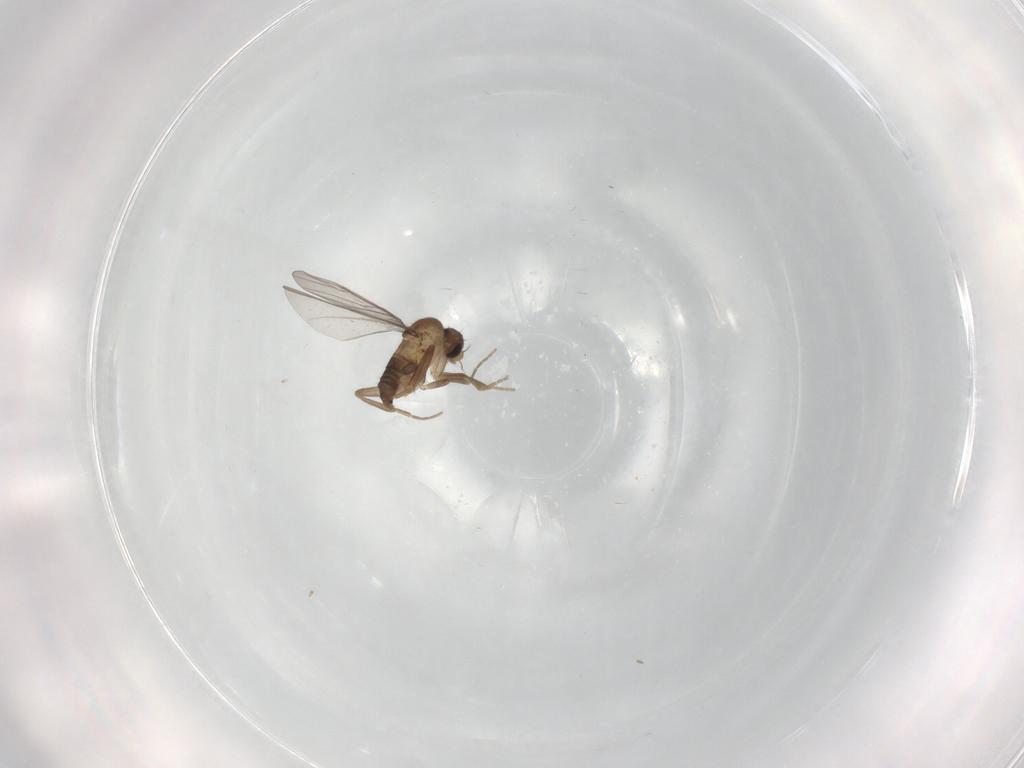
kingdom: Animalia
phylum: Arthropoda
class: Insecta
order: Diptera
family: Cecidomyiidae
